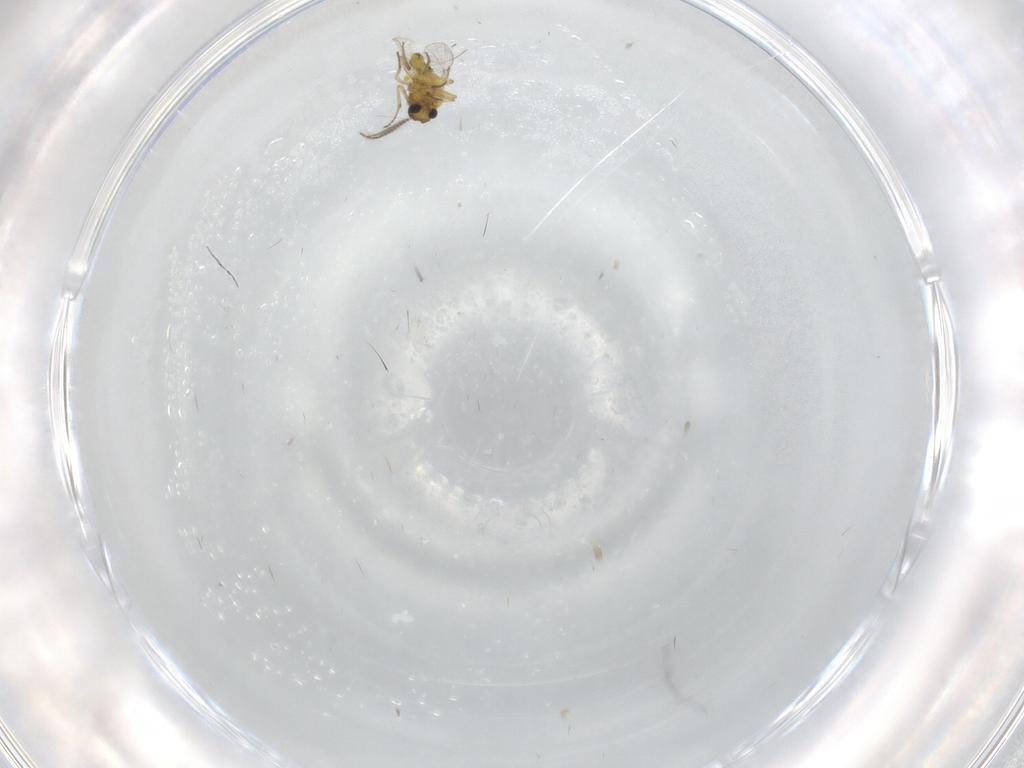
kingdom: Animalia
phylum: Arthropoda
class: Insecta
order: Diptera
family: Ceratopogonidae
